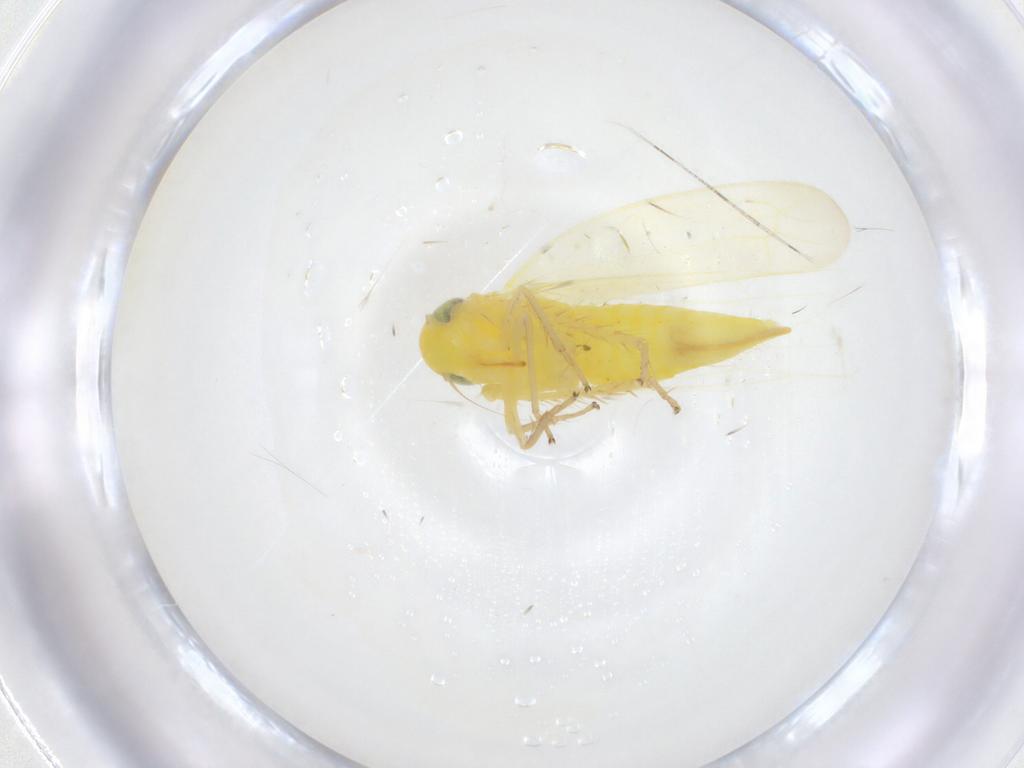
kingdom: Animalia
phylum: Arthropoda
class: Insecta
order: Hemiptera
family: Cicadellidae
